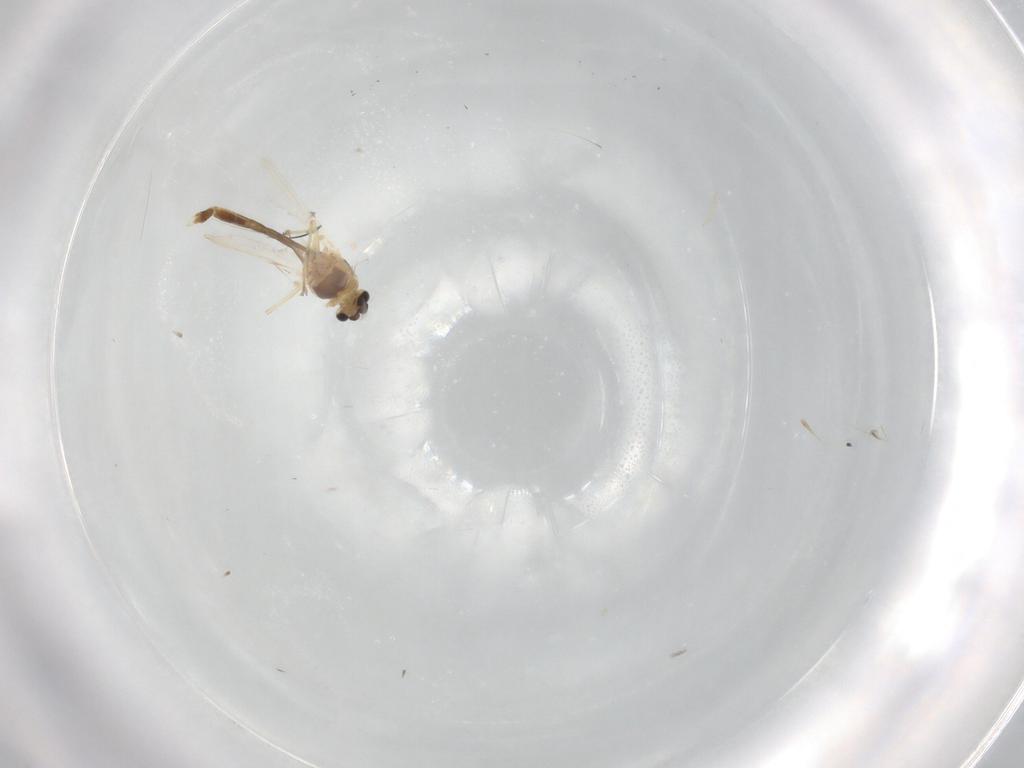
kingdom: Animalia
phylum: Arthropoda
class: Insecta
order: Diptera
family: Chironomidae
